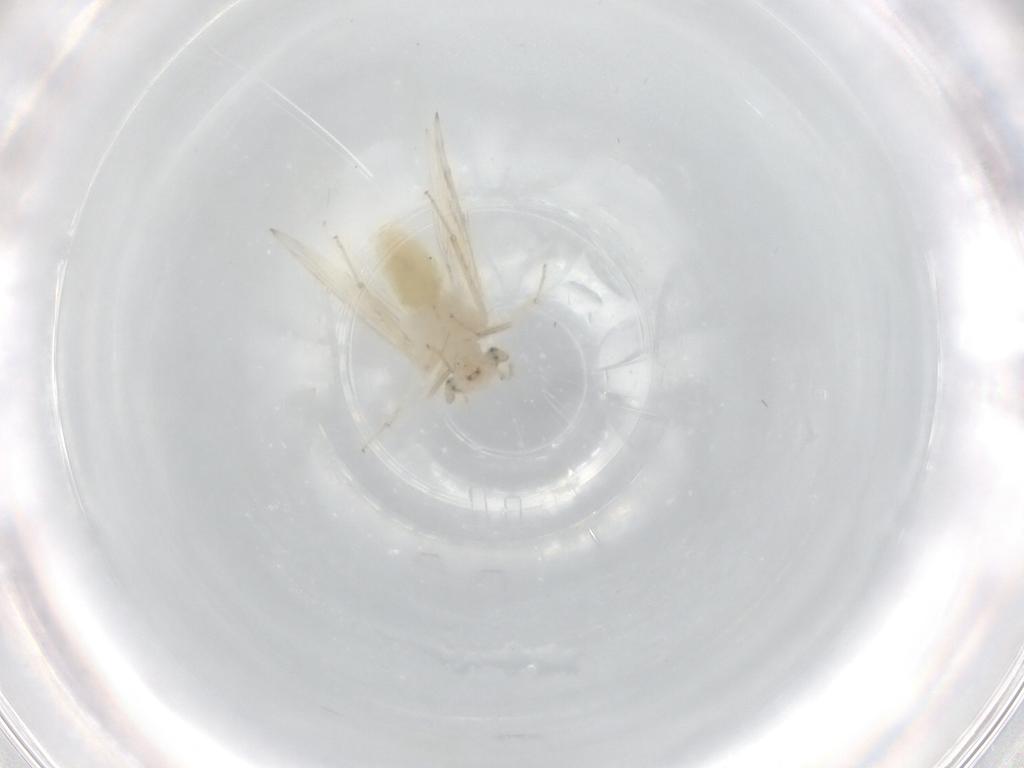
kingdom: Animalia
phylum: Arthropoda
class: Insecta
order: Psocodea
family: Lepidopsocidae
